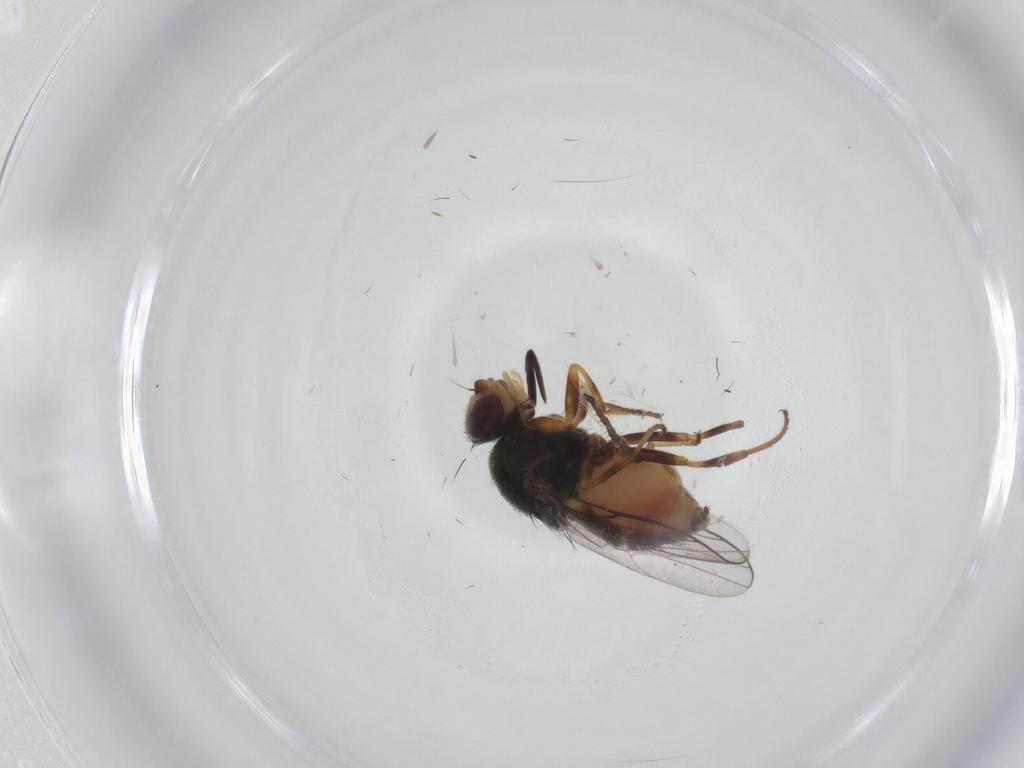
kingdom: Animalia
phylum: Arthropoda
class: Insecta
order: Diptera
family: Chloropidae
